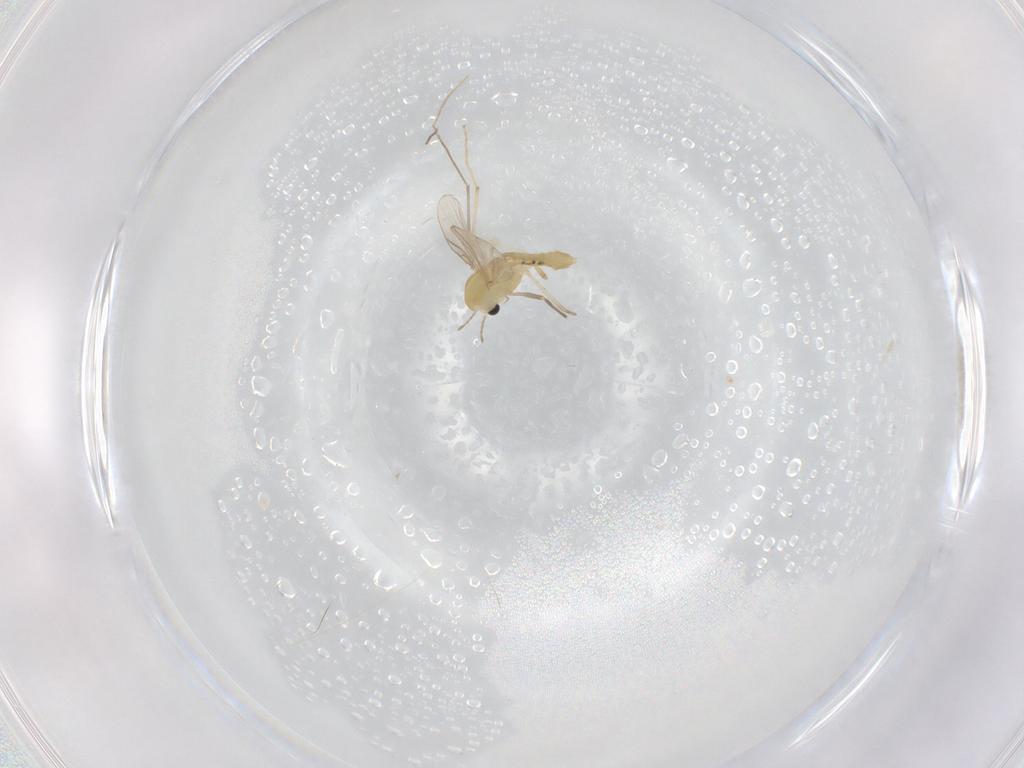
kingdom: Animalia
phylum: Arthropoda
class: Insecta
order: Diptera
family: Chironomidae
